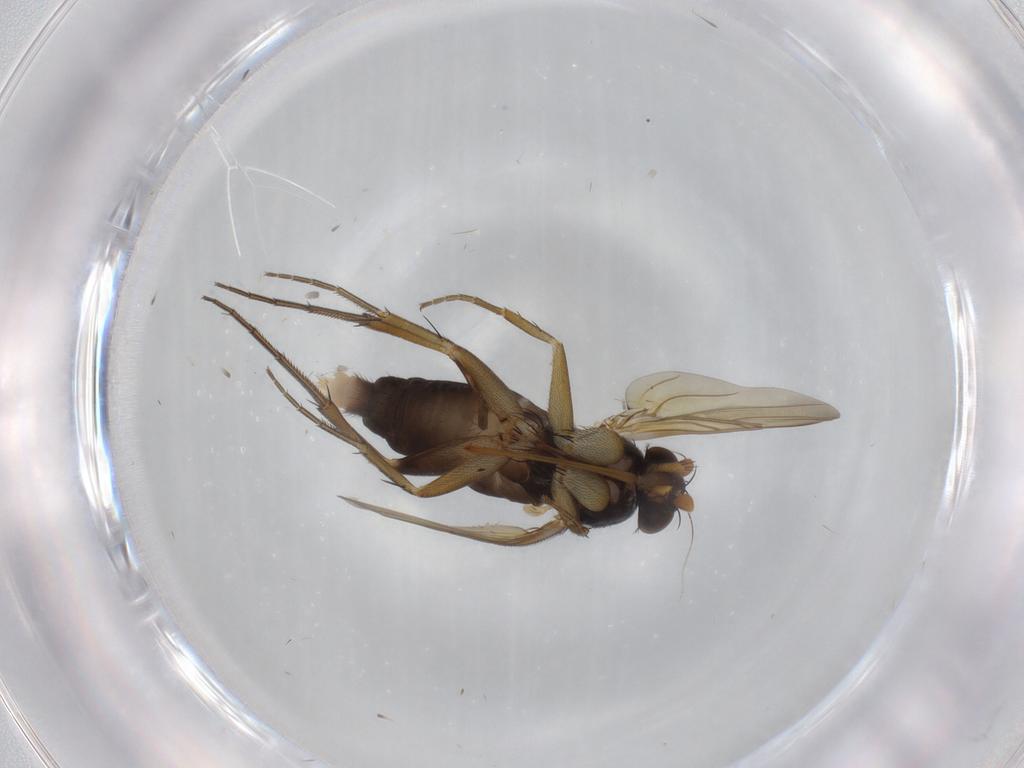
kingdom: Animalia
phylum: Arthropoda
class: Insecta
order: Diptera
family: Phoridae
